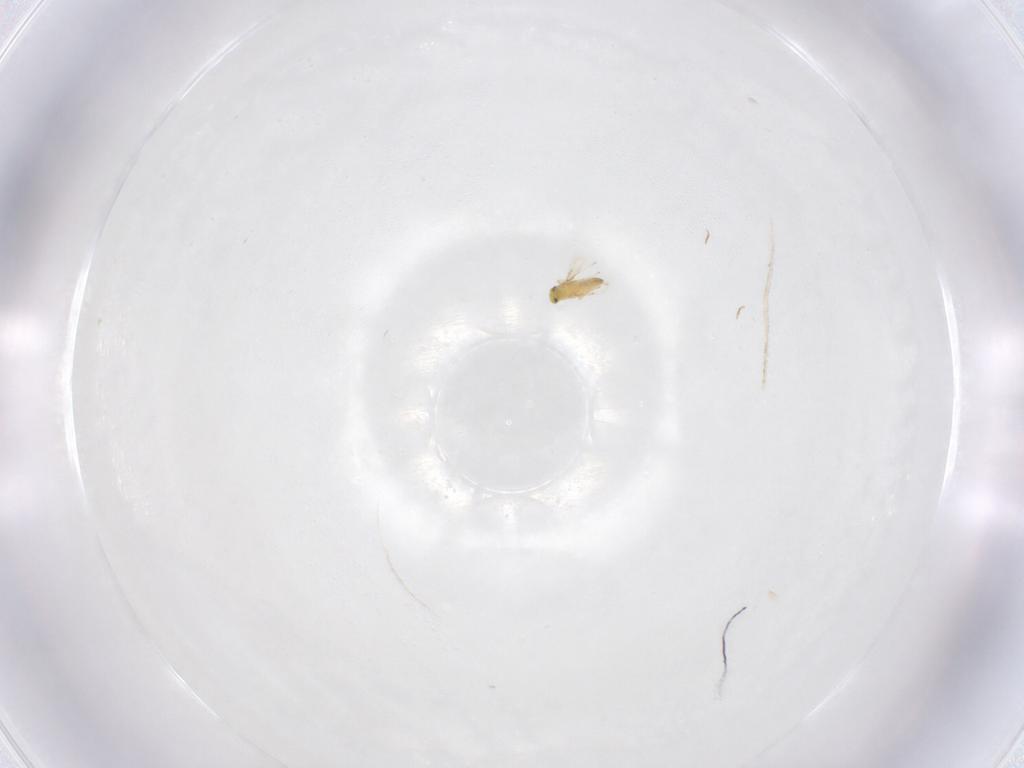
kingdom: Animalia
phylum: Arthropoda
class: Insecta
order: Hymenoptera
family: Trichogrammatidae
